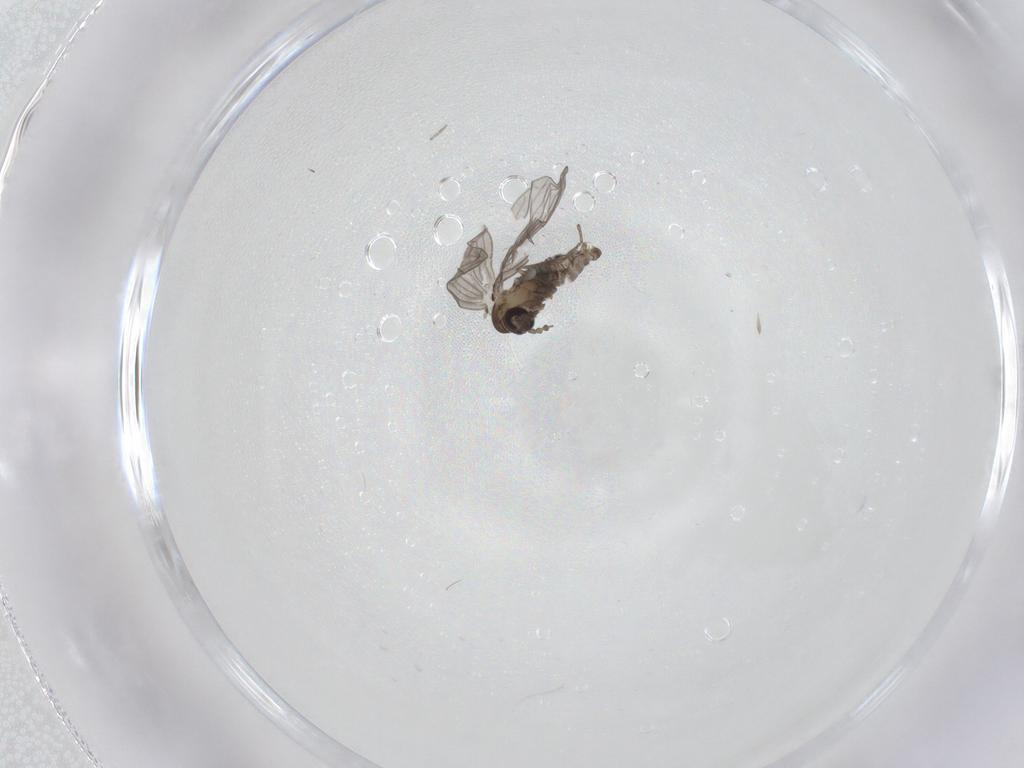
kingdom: Animalia
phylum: Arthropoda
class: Insecta
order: Diptera
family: Psychodidae
